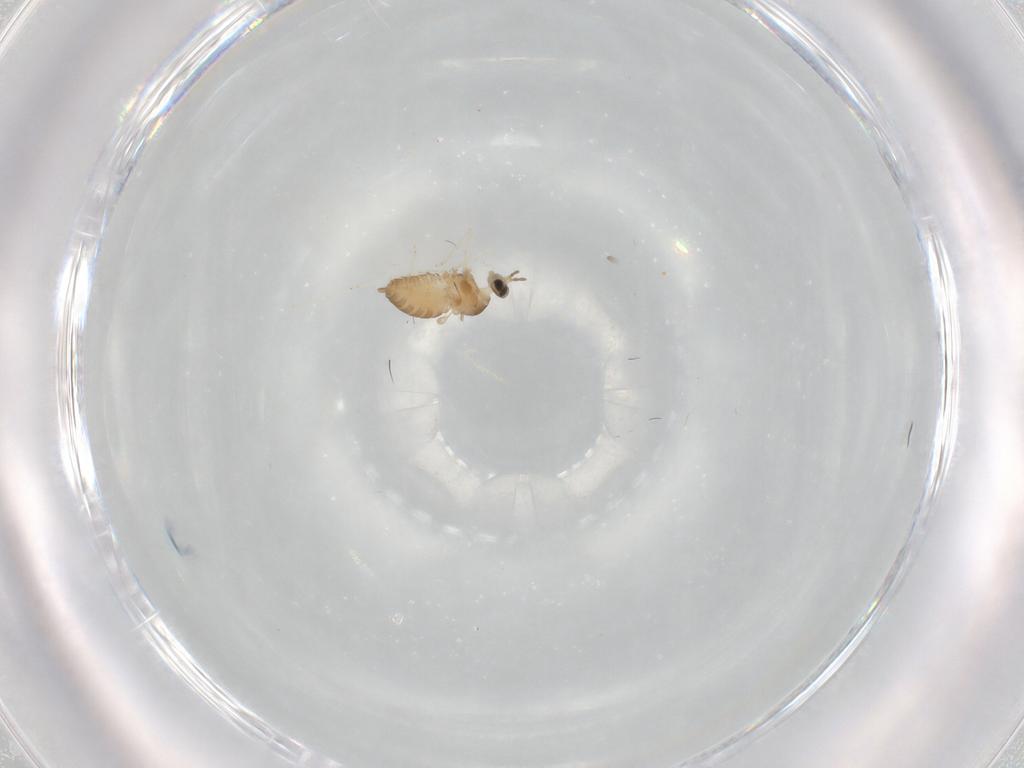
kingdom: Animalia
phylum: Arthropoda
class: Insecta
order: Diptera
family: Cecidomyiidae
